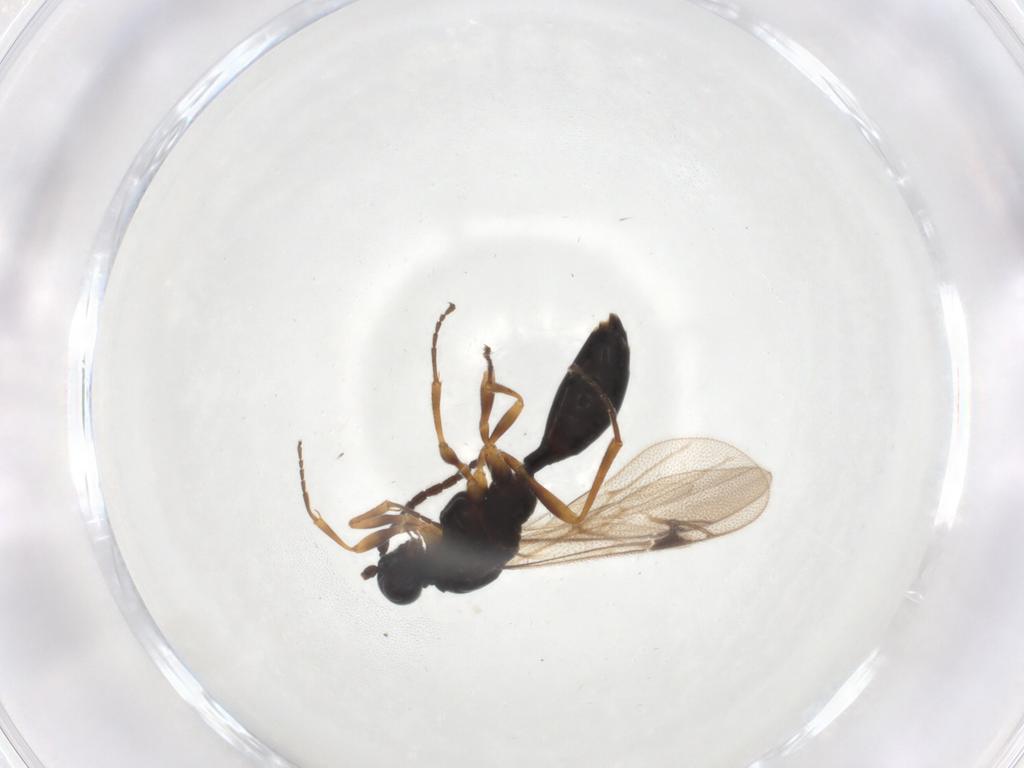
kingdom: Animalia
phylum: Arthropoda
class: Insecta
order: Hymenoptera
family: Proctotrupidae
